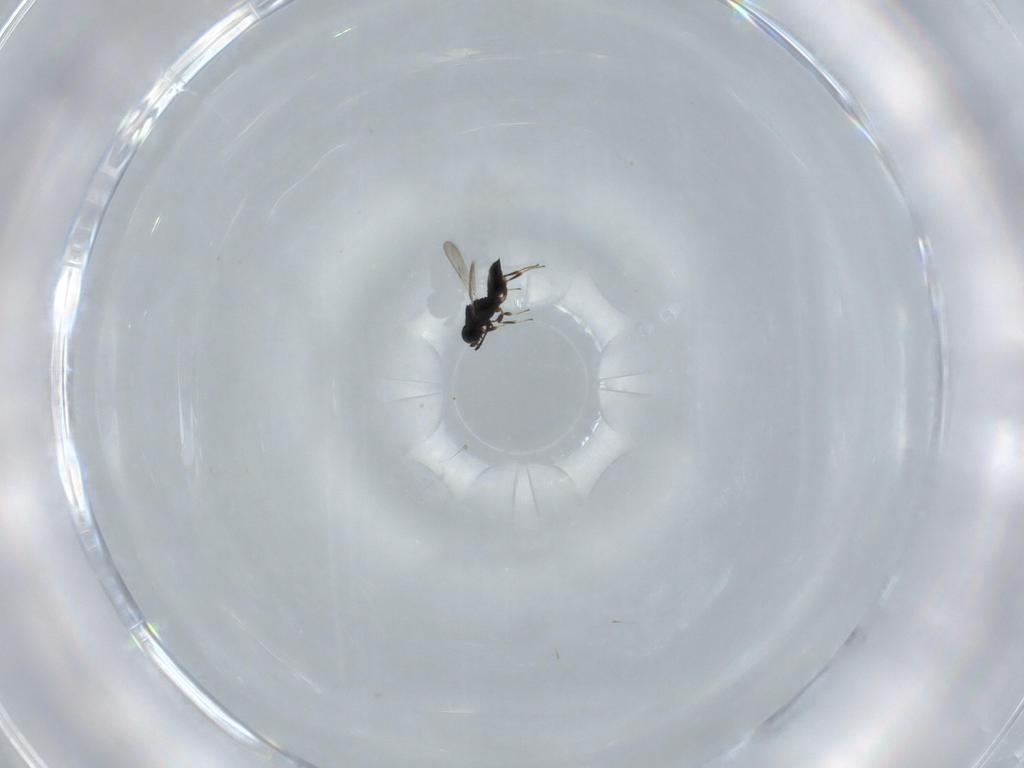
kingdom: Animalia
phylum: Arthropoda
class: Insecta
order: Hymenoptera
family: Scelionidae
